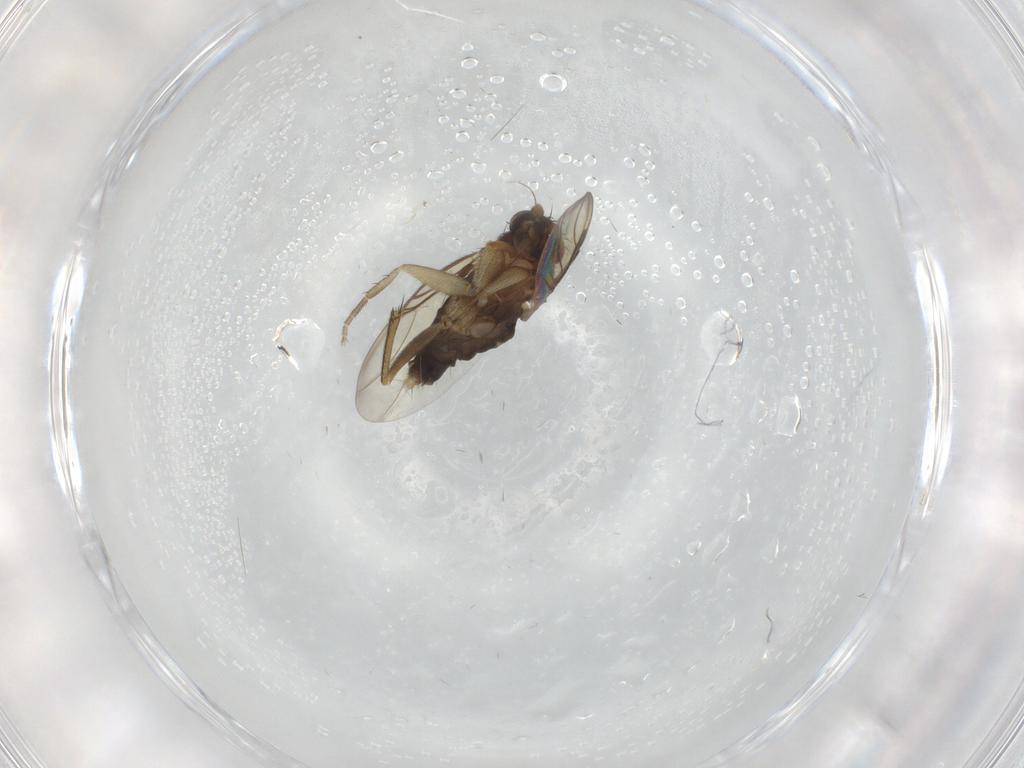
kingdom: Animalia
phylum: Arthropoda
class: Insecta
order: Diptera
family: Phoridae
